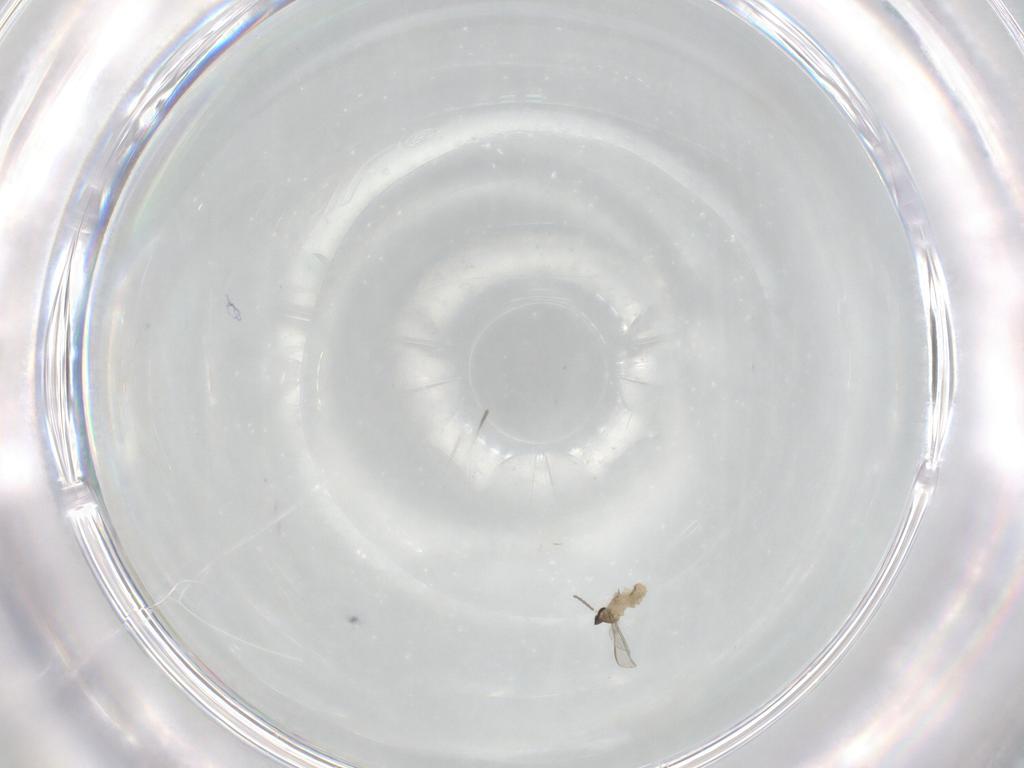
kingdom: Animalia
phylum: Arthropoda
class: Insecta
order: Diptera
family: Cecidomyiidae
